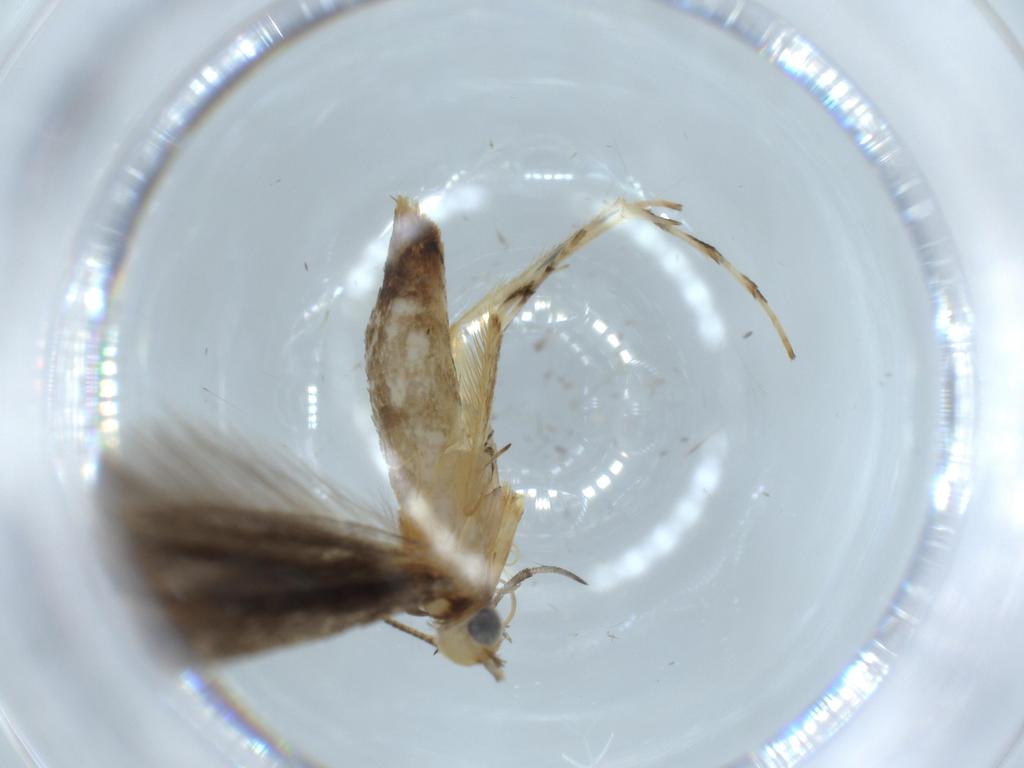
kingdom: Animalia
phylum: Arthropoda
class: Insecta
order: Lepidoptera
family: Gracillariidae
